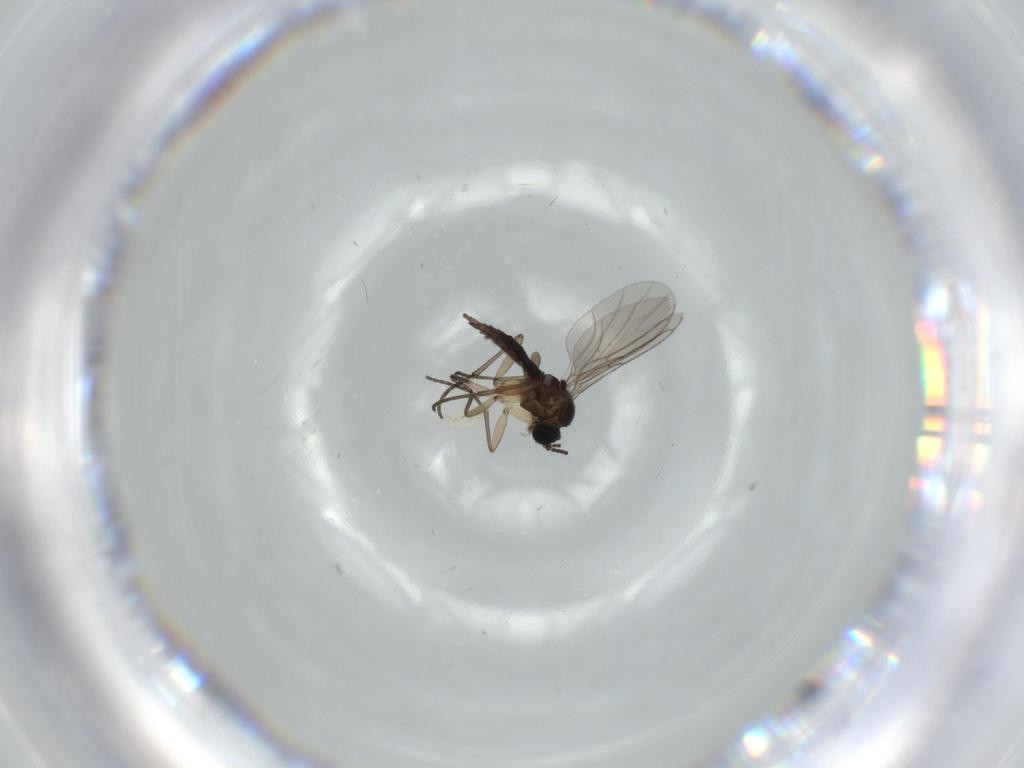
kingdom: Animalia
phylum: Arthropoda
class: Insecta
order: Diptera
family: Sciaridae
